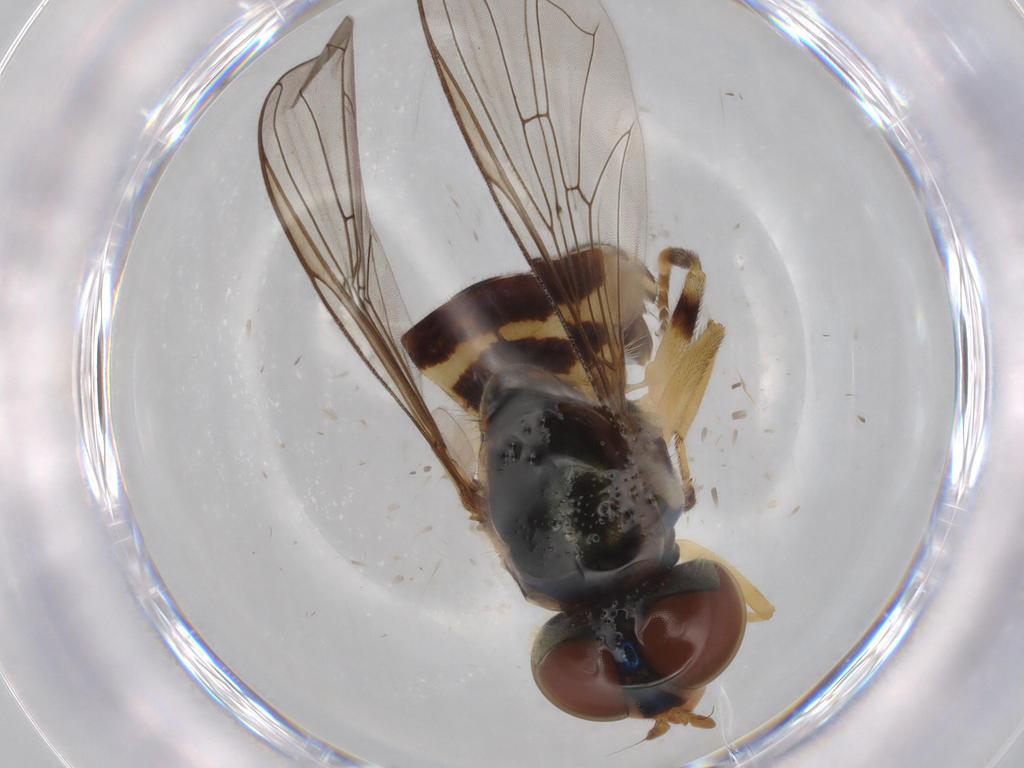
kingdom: Animalia
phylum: Arthropoda
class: Insecta
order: Diptera
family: Syrphidae
